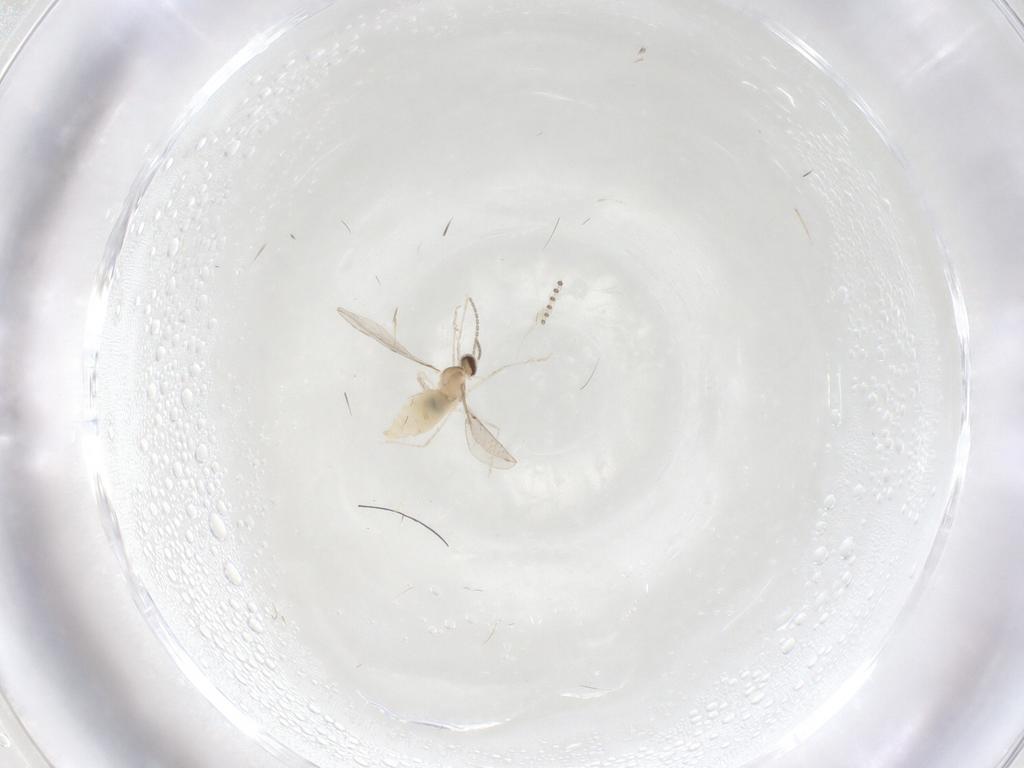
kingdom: Animalia
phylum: Arthropoda
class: Insecta
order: Diptera
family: Cecidomyiidae
